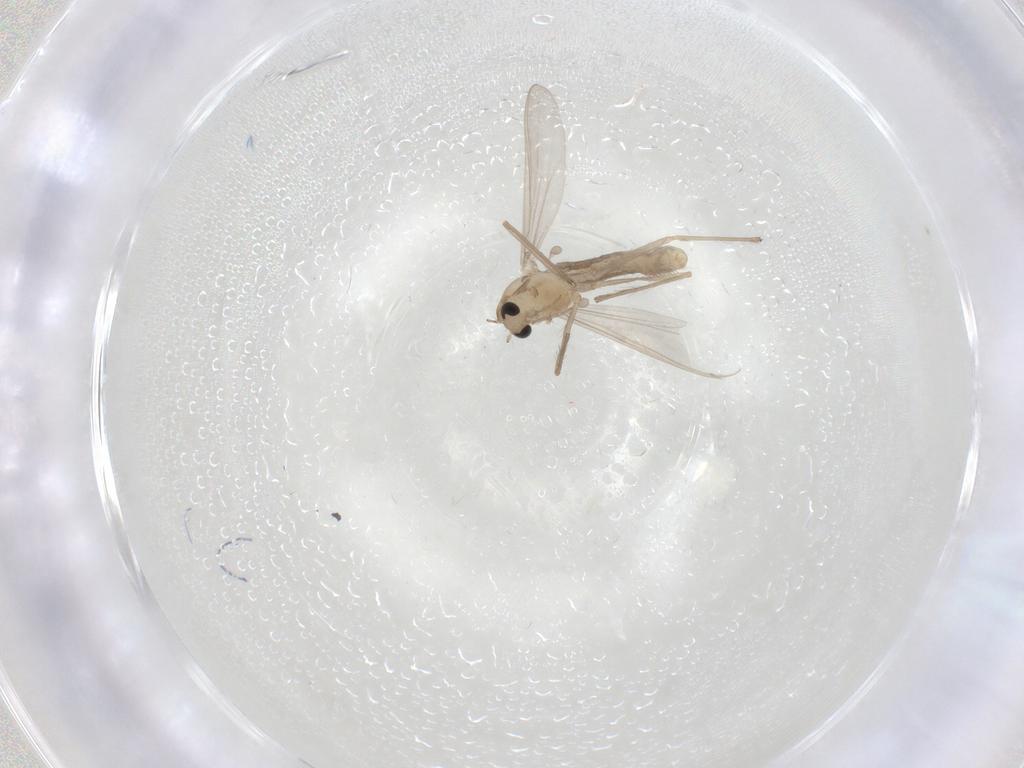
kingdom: Animalia
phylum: Arthropoda
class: Insecta
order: Diptera
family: Chironomidae
